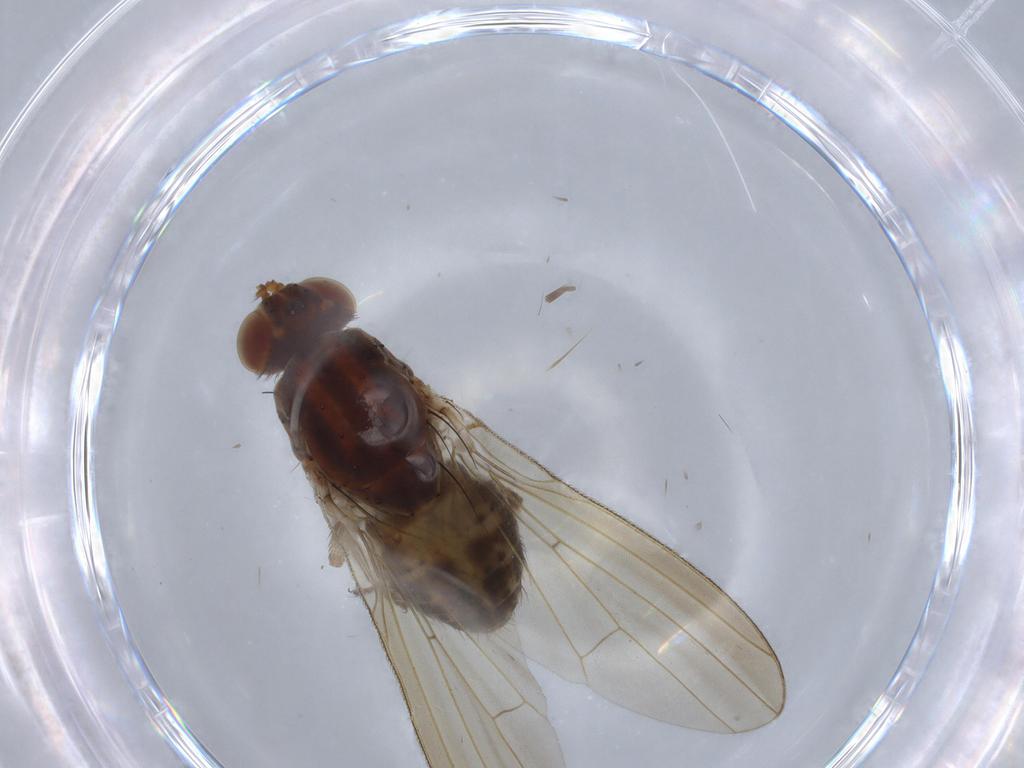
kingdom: Animalia
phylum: Arthropoda
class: Insecta
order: Diptera
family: Lauxaniidae
